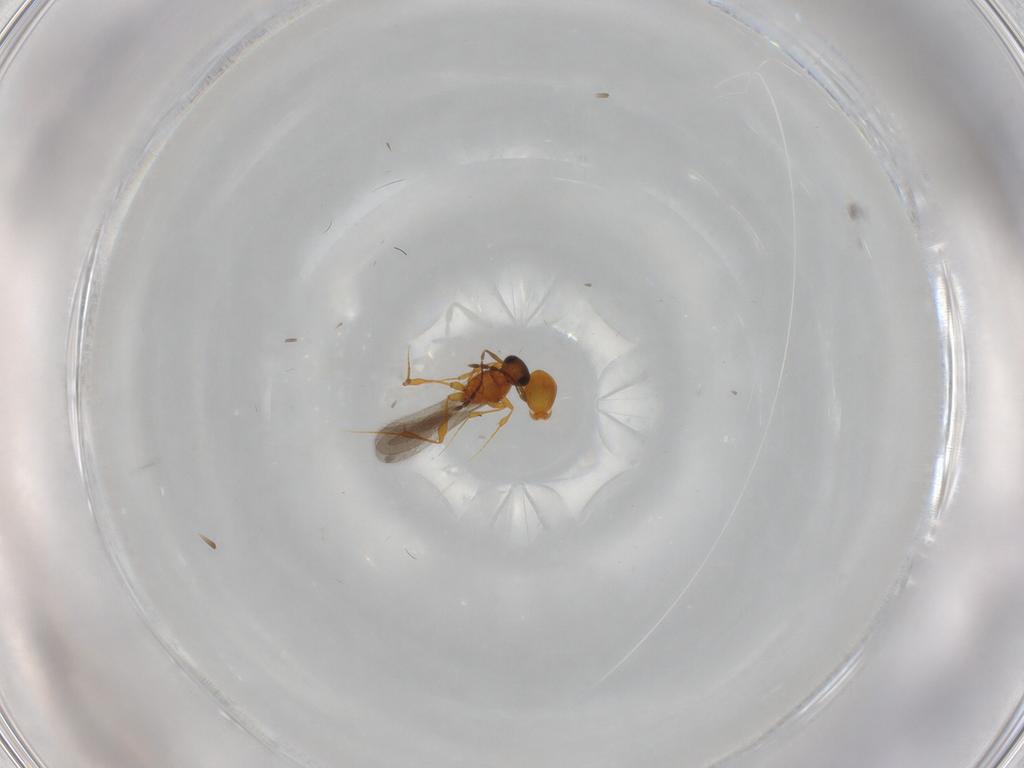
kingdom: Animalia
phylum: Arthropoda
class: Insecta
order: Hymenoptera
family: Platygastridae
